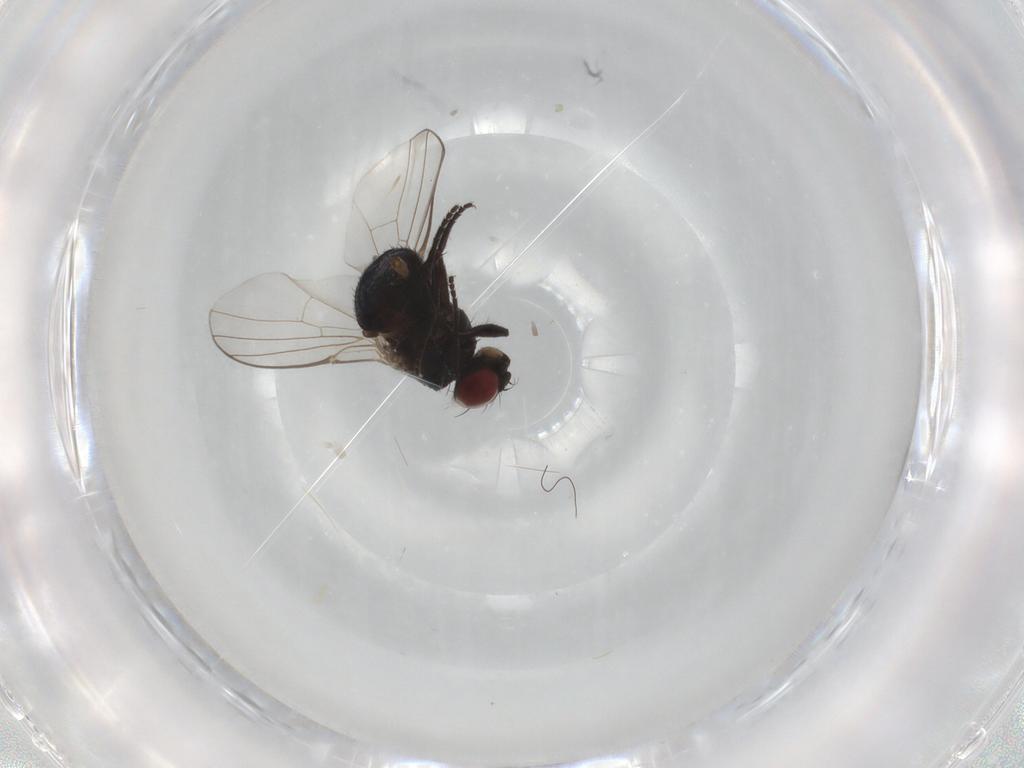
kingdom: Animalia
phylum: Arthropoda
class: Insecta
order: Diptera
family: Agromyzidae
